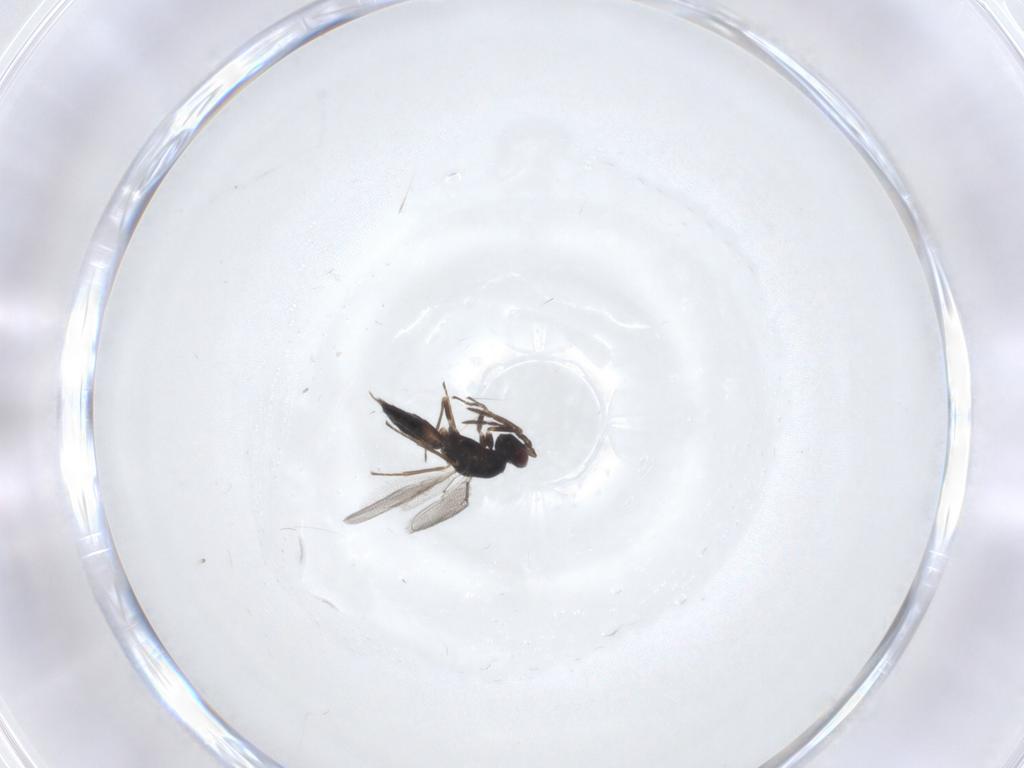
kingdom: Animalia
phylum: Arthropoda
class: Insecta
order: Hymenoptera
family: Eulophidae
